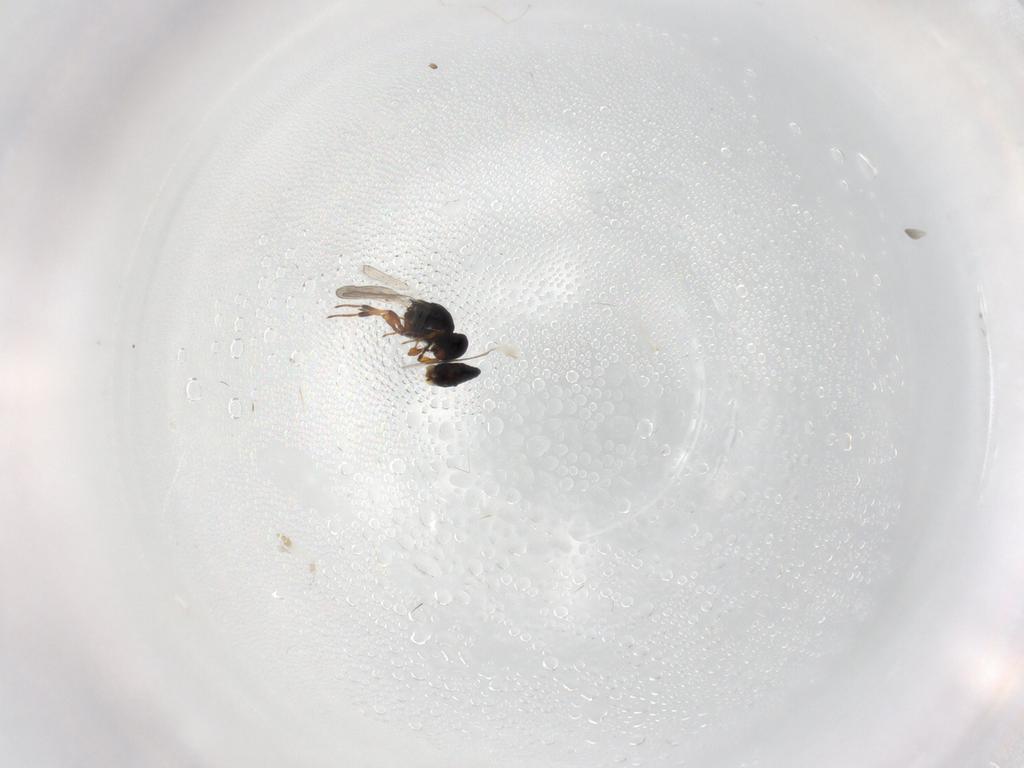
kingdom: Animalia
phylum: Arthropoda
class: Insecta
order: Hymenoptera
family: Platygastridae
